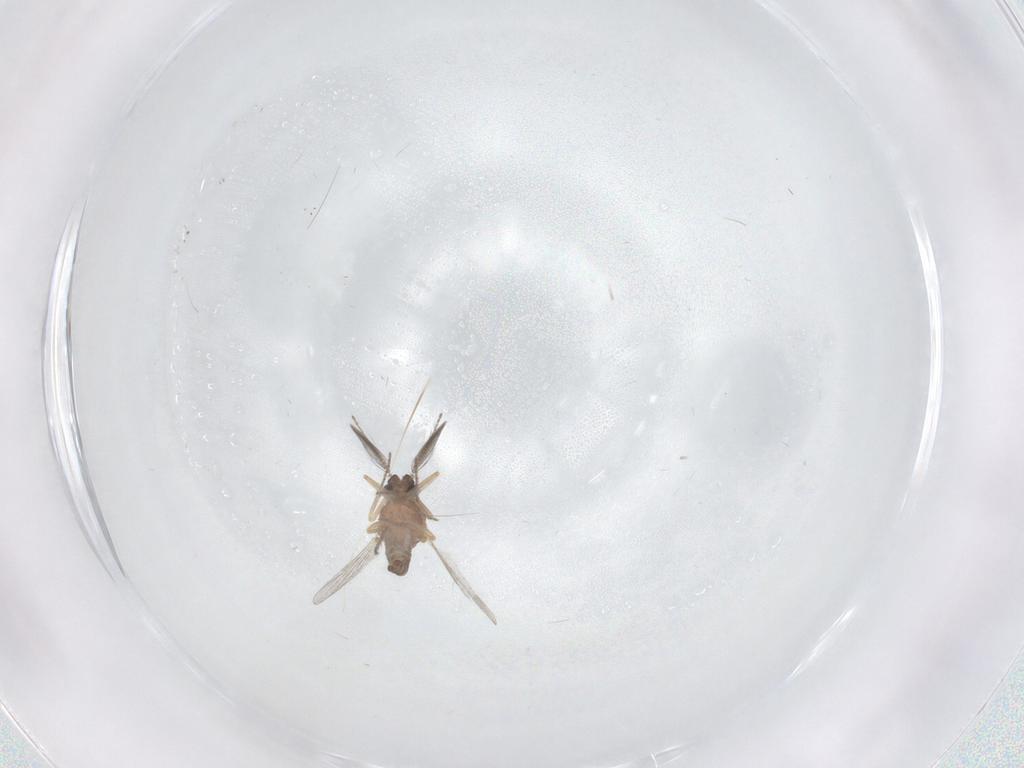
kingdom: Animalia
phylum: Arthropoda
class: Insecta
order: Diptera
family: Ceratopogonidae
